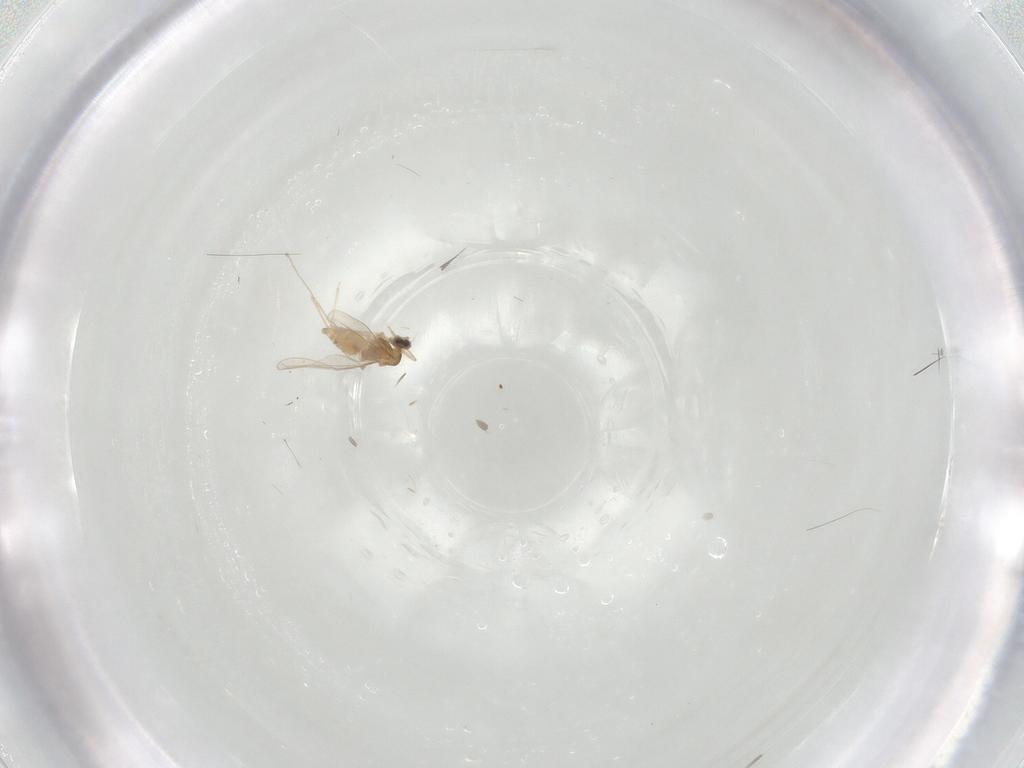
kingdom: Animalia
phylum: Arthropoda
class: Insecta
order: Diptera
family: Cecidomyiidae
